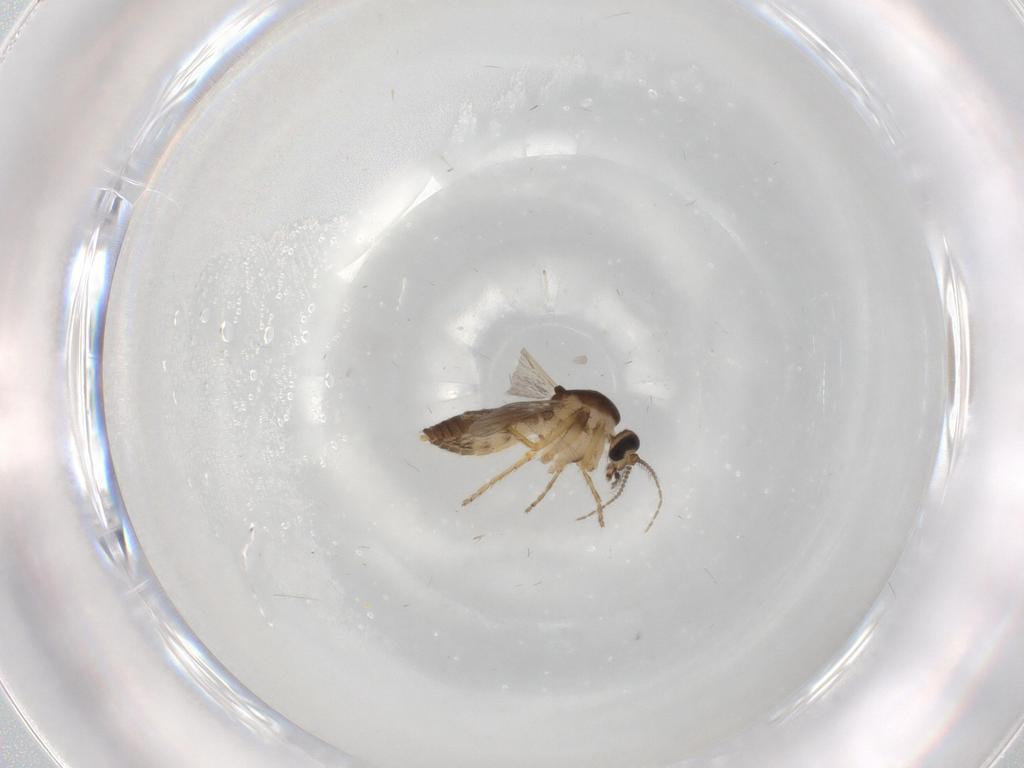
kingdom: Animalia
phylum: Arthropoda
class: Insecta
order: Diptera
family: Ceratopogonidae
